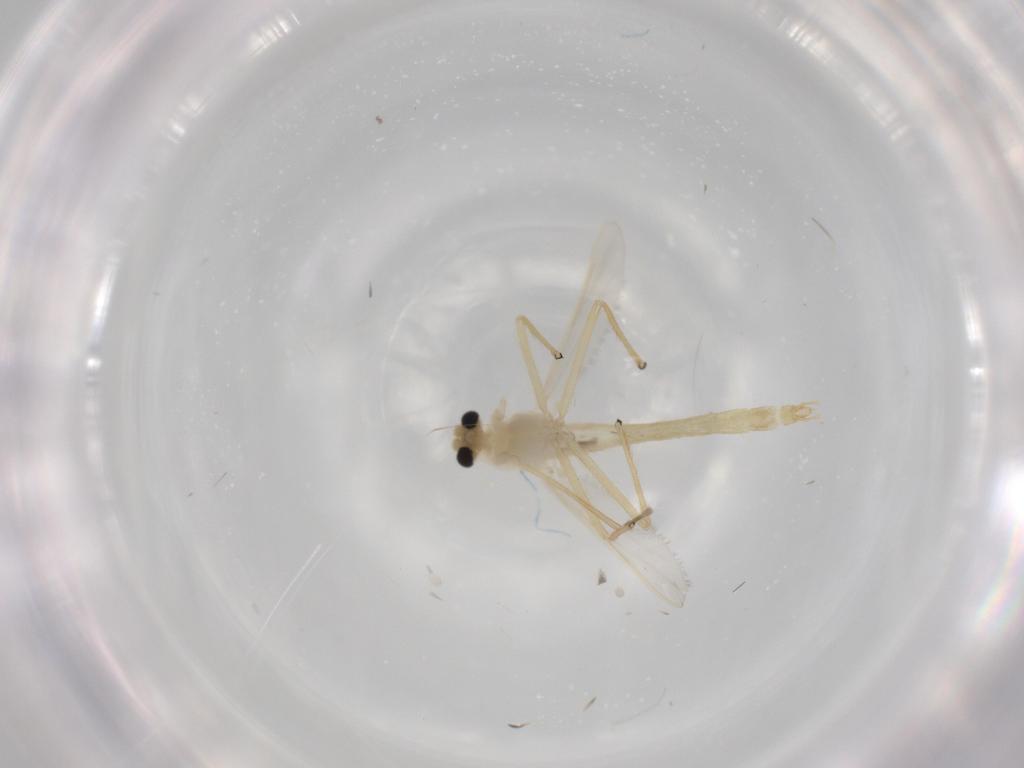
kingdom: Animalia
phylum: Arthropoda
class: Insecta
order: Diptera
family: Chironomidae
